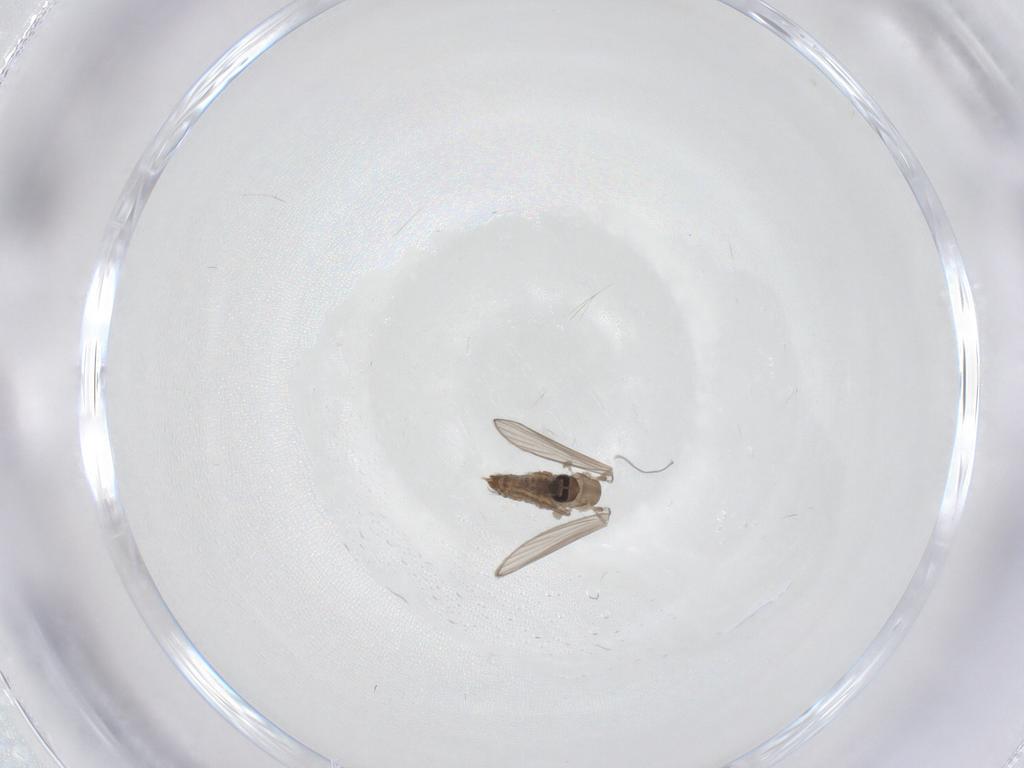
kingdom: Animalia
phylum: Arthropoda
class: Insecta
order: Diptera
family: Psychodidae
